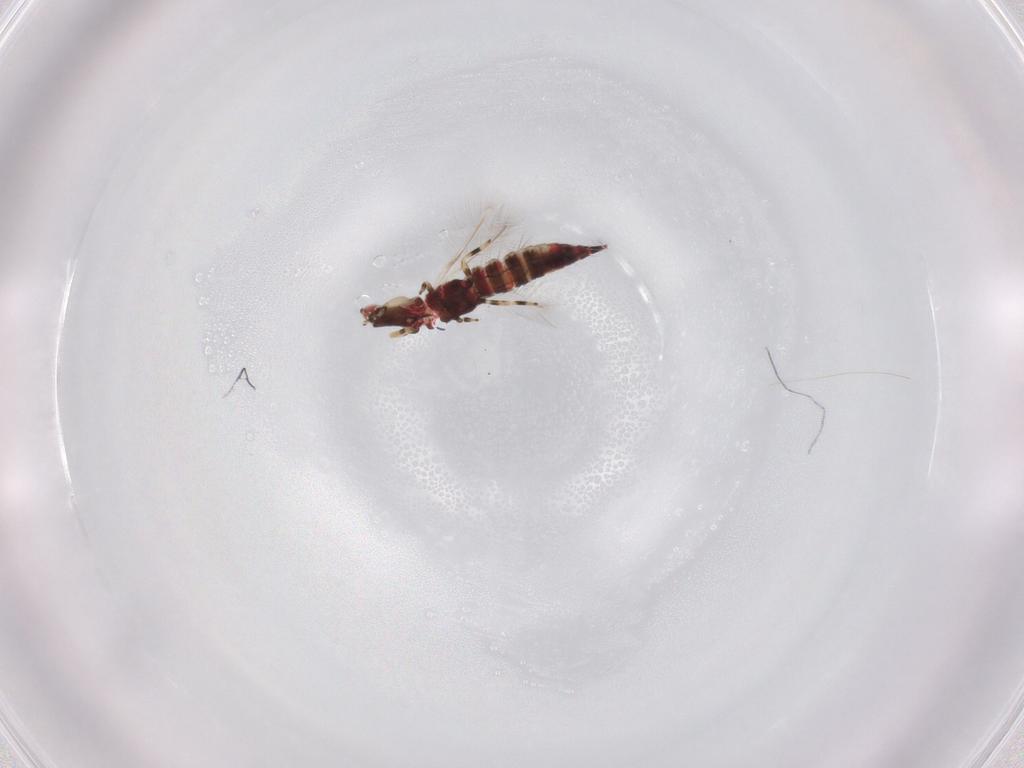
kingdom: Animalia
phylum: Arthropoda
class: Insecta
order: Thysanoptera
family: Phlaeothripidae
